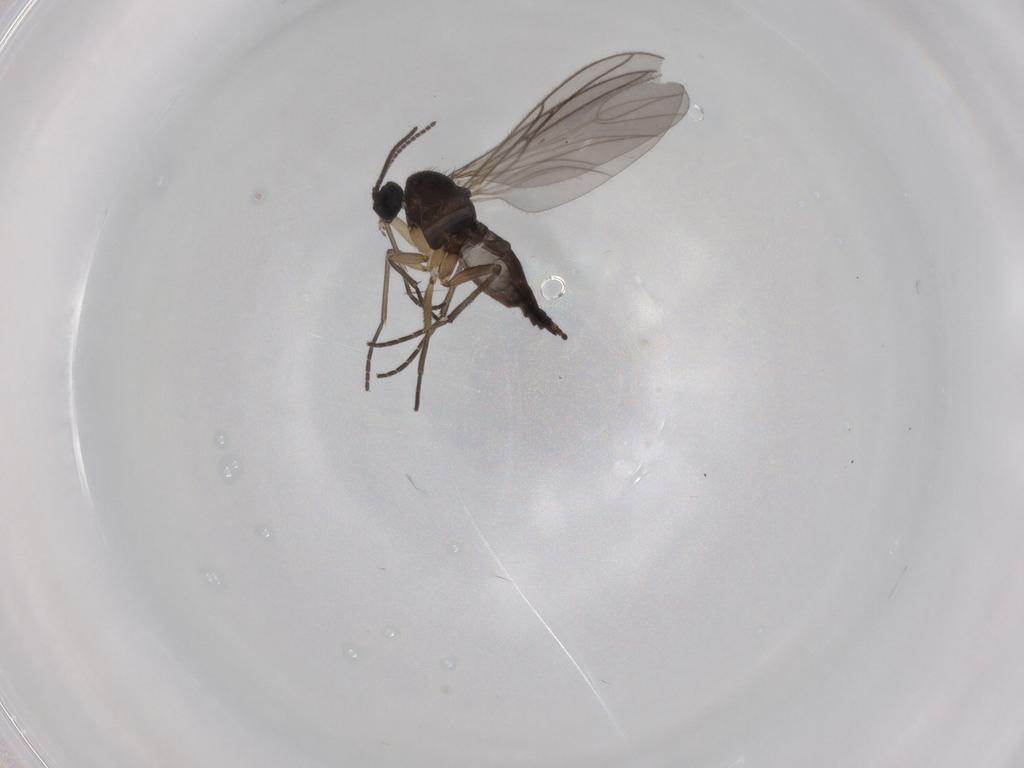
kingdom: Animalia
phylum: Arthropoda
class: Insecta
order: Diptera
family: Sciaridae
